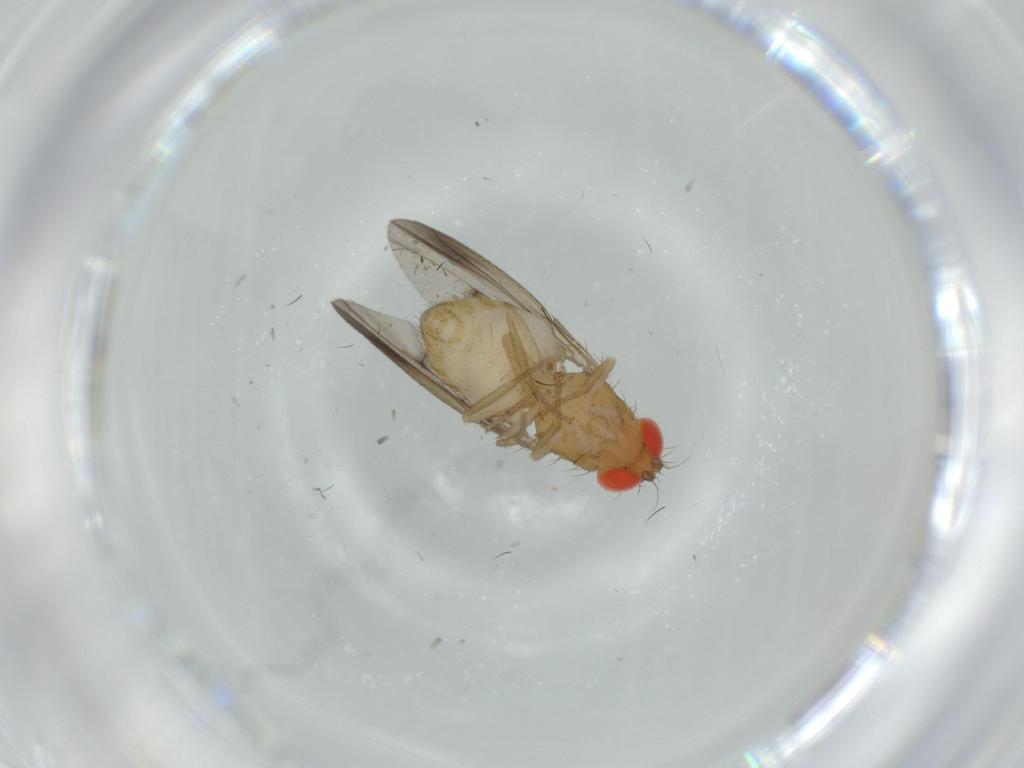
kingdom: Animalia
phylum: Arthropoda
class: Insecta
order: Diptera
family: Drosophilidae
